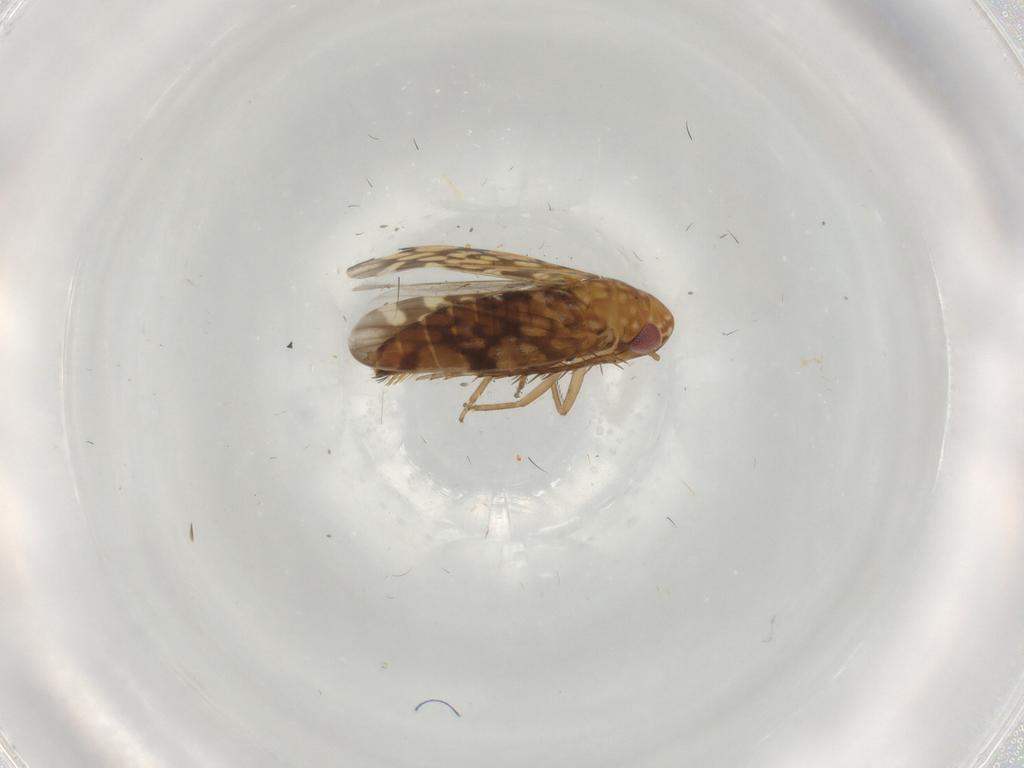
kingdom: Animalia
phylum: Arthropoda
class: Insecta
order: Hemiptera
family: Cicadellidae
